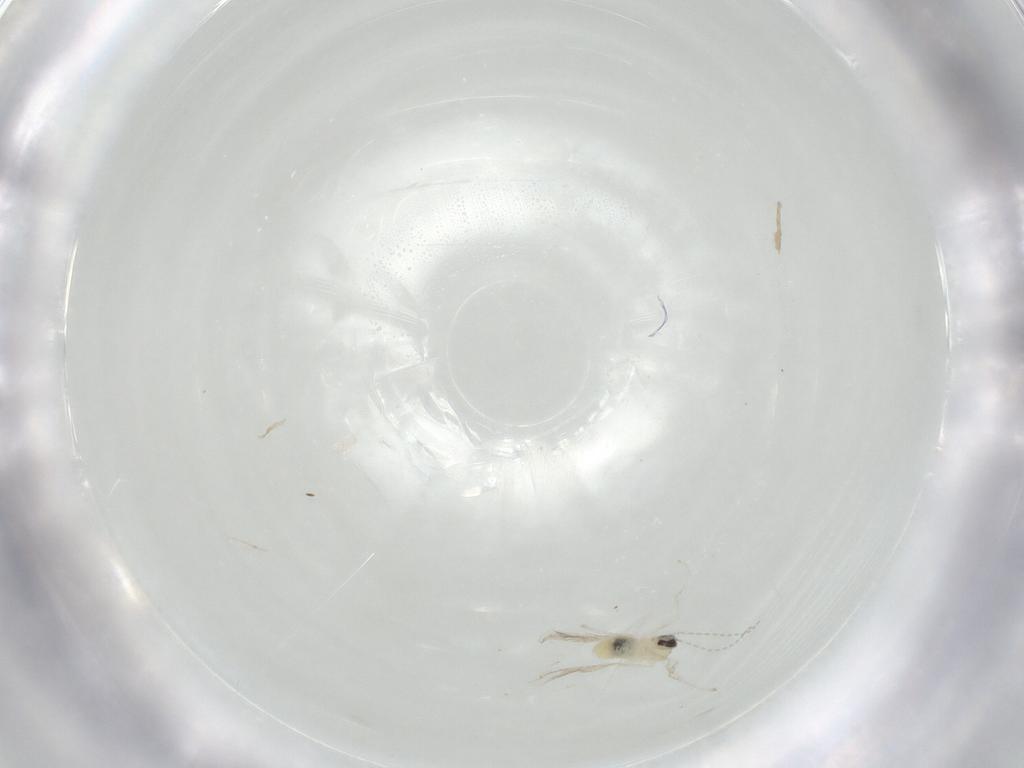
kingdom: Animalia
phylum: Arthropoda
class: Insecta
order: Diptera
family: Cecidomyiidae
